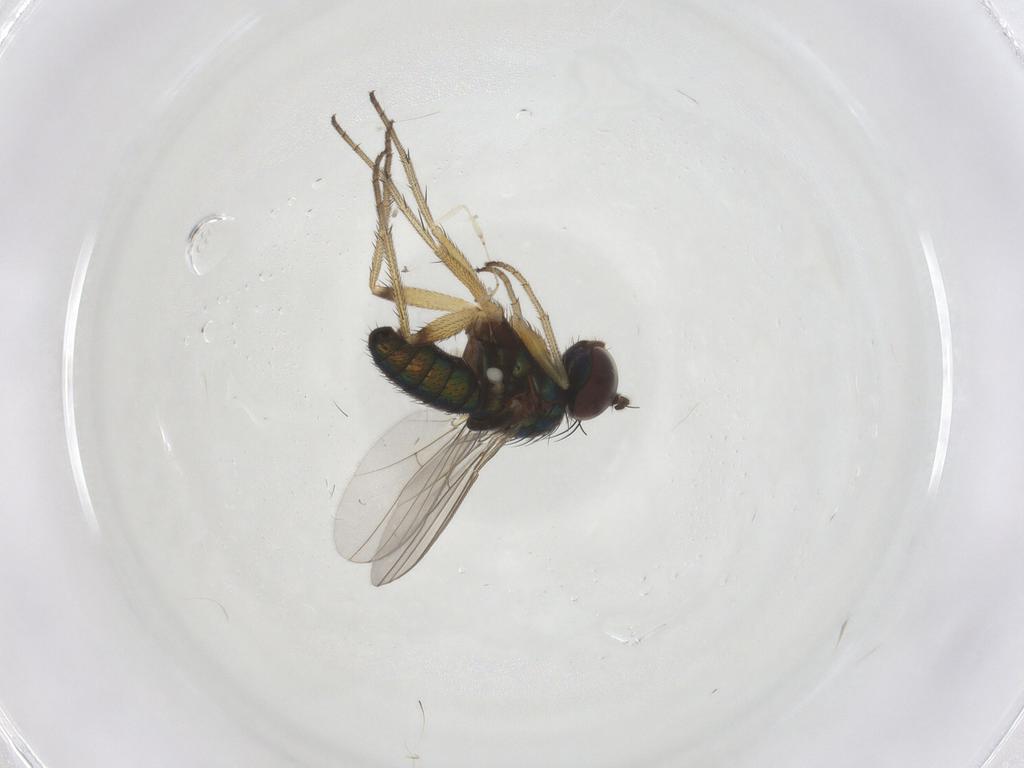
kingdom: Animalia
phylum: Arthropoda
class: Insecta
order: Diptera
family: Dolichopodidae
